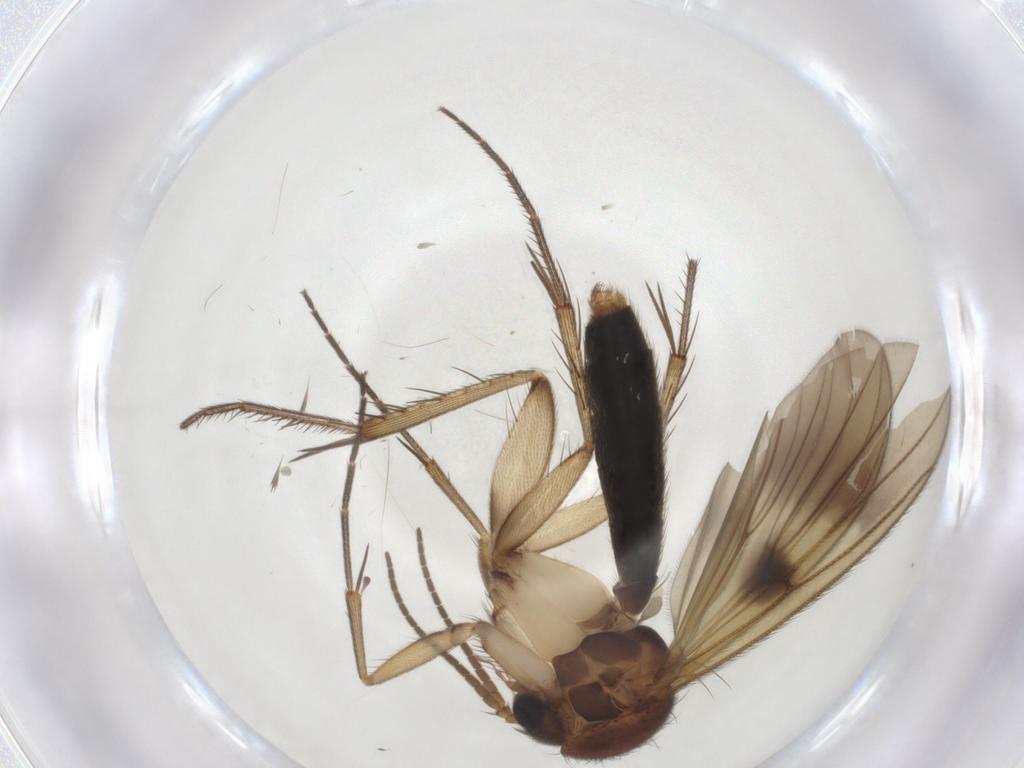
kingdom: Animalia
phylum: Arthropoda
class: Insecta
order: Diptera
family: Mycetophilidae
